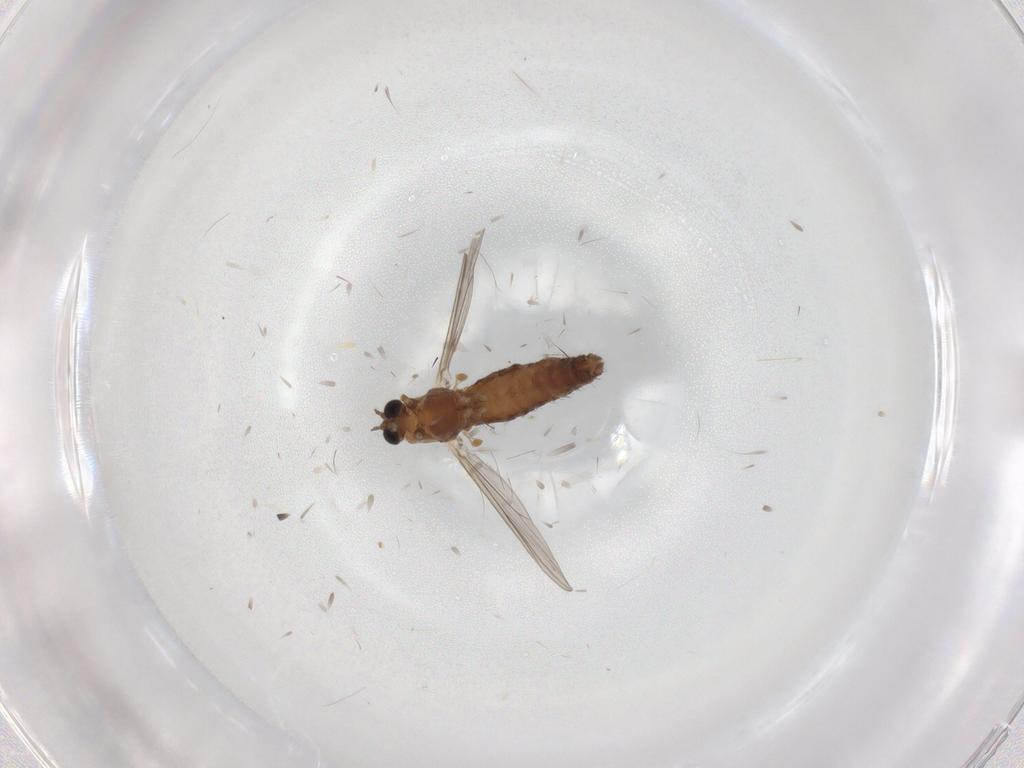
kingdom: Animalia
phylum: Arthropoda
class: Insecta
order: Diptera
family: Chironomidae
